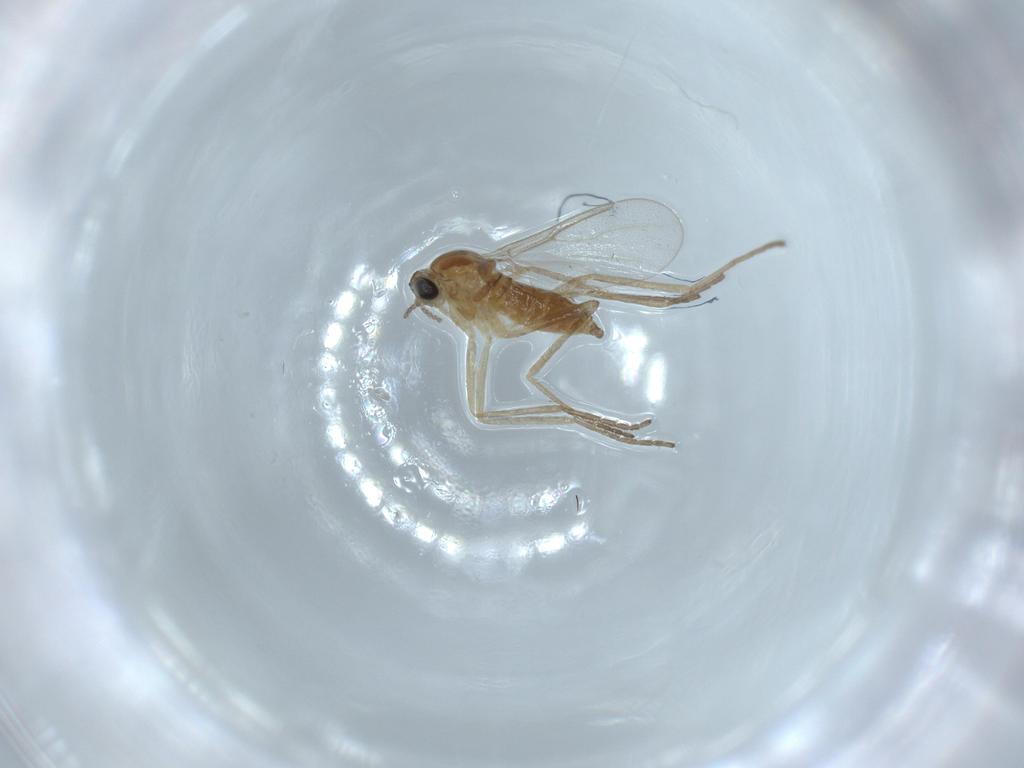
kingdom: Animalia
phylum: Arthropoda
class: Insecta
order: Diptera
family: Cecidomyiidae
